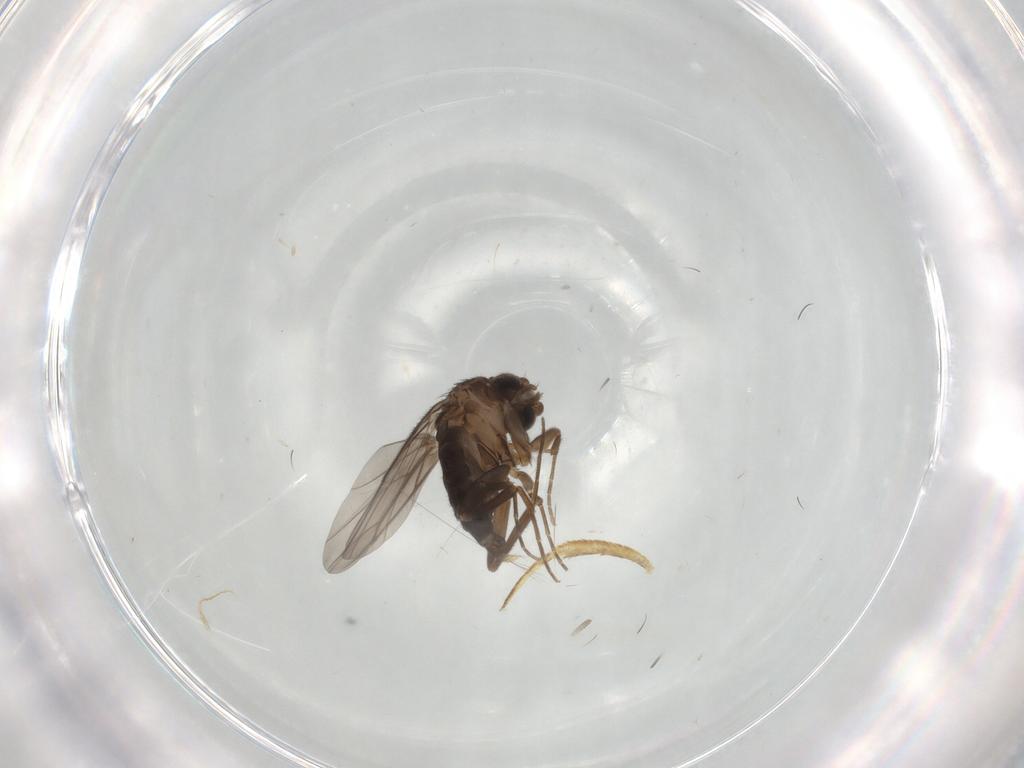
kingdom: Animalia
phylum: Arthropoda
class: Insecta
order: Diptera
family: Cecidomyiidae
